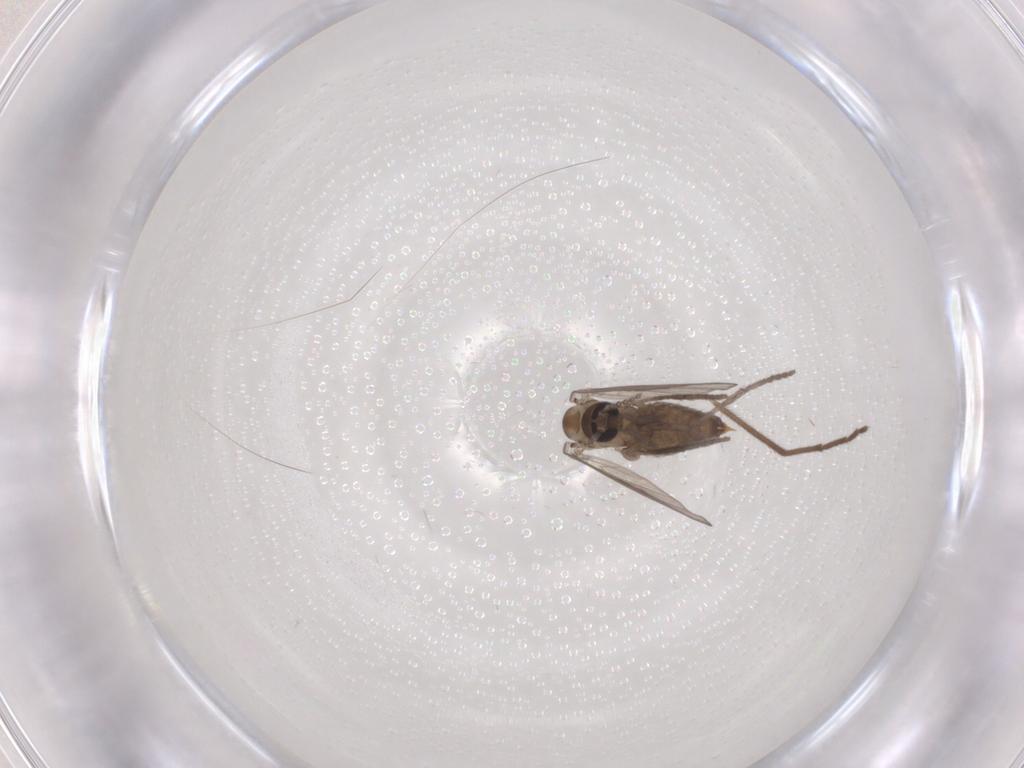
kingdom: Animalia
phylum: Arthropoda
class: Insecta
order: Diptera
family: Psychodidae
